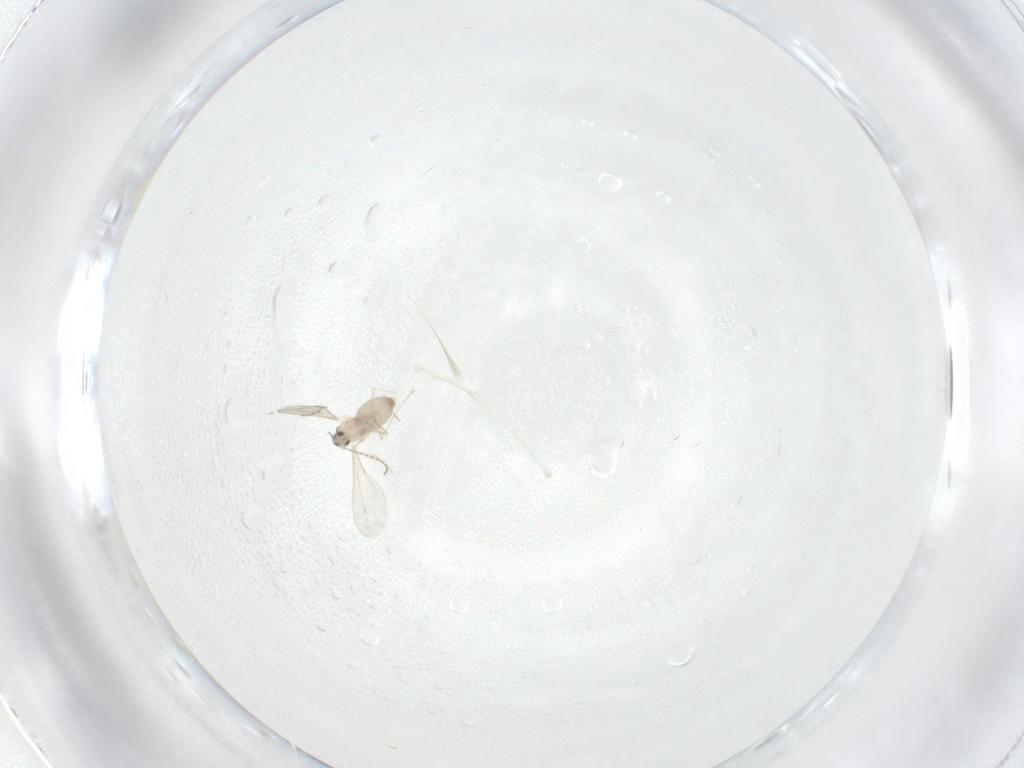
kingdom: Animalia
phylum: Arthropoda
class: Insecta
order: Diptera
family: Cecidomyiidae
